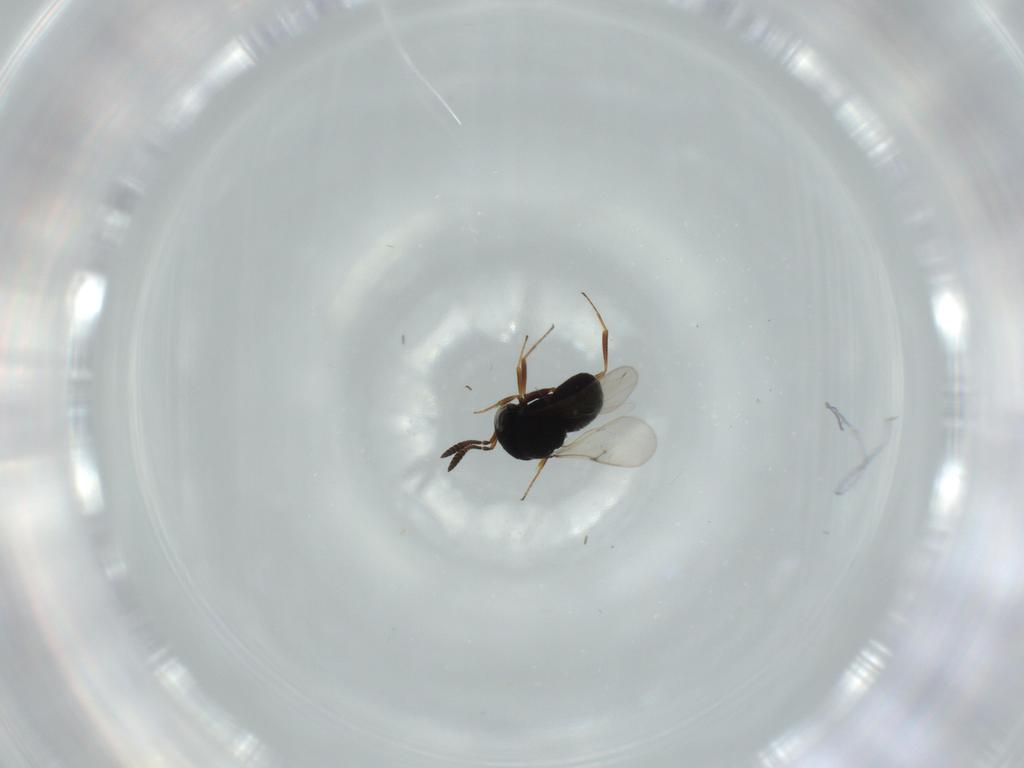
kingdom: Animalia
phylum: Arthropoda
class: Insecta
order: Hymenoptera
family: Scelionidae
